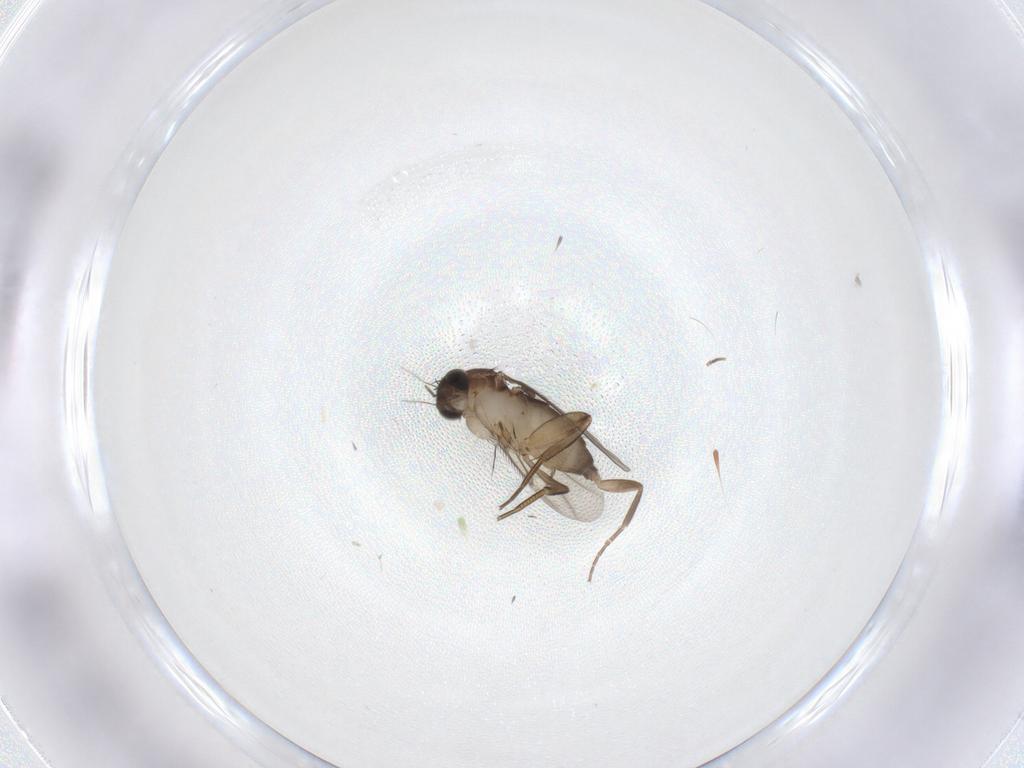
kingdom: Animalia
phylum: Arthropoda
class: Insecta
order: Diptera
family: Phoridae
